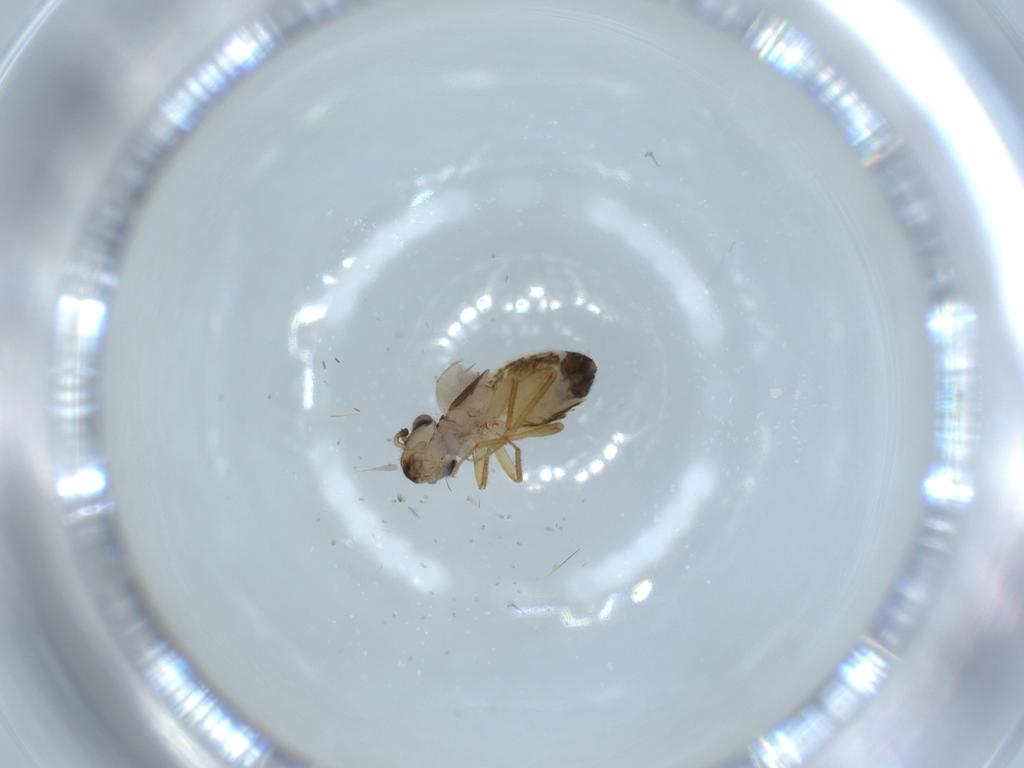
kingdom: Animalia
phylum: Arthropoda
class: Insecta
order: Psocodea
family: Lepidopsocidae
